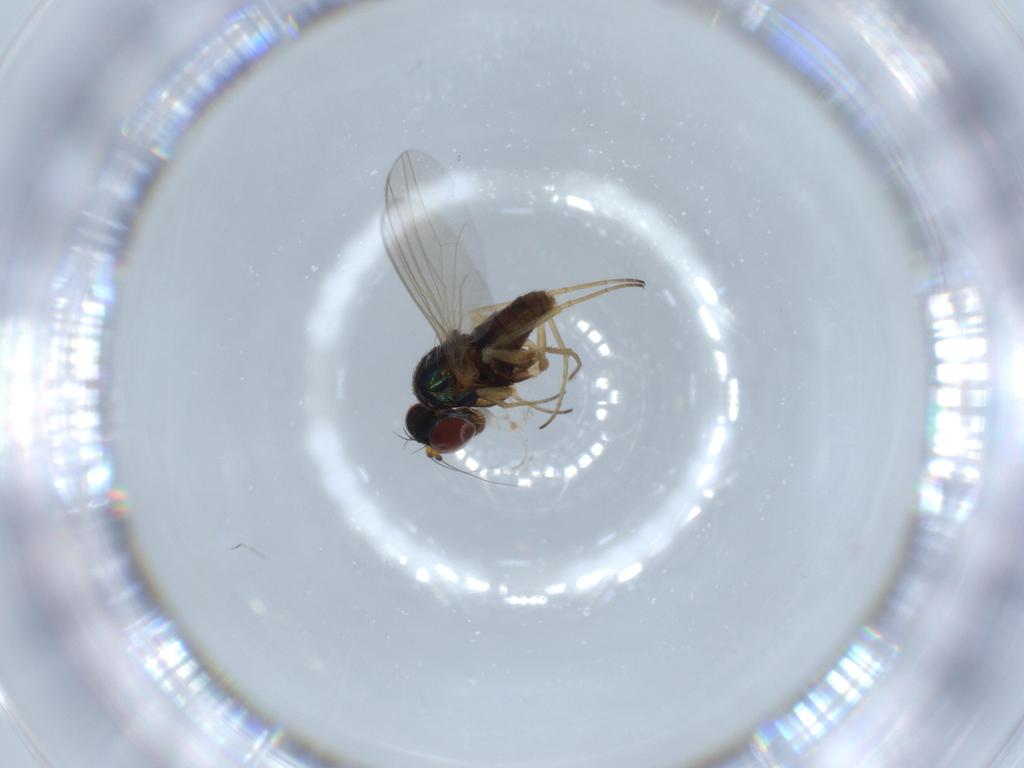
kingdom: Animalia
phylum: Arthropoda
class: Insecta
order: Diptera
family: Cecidomyiidae
